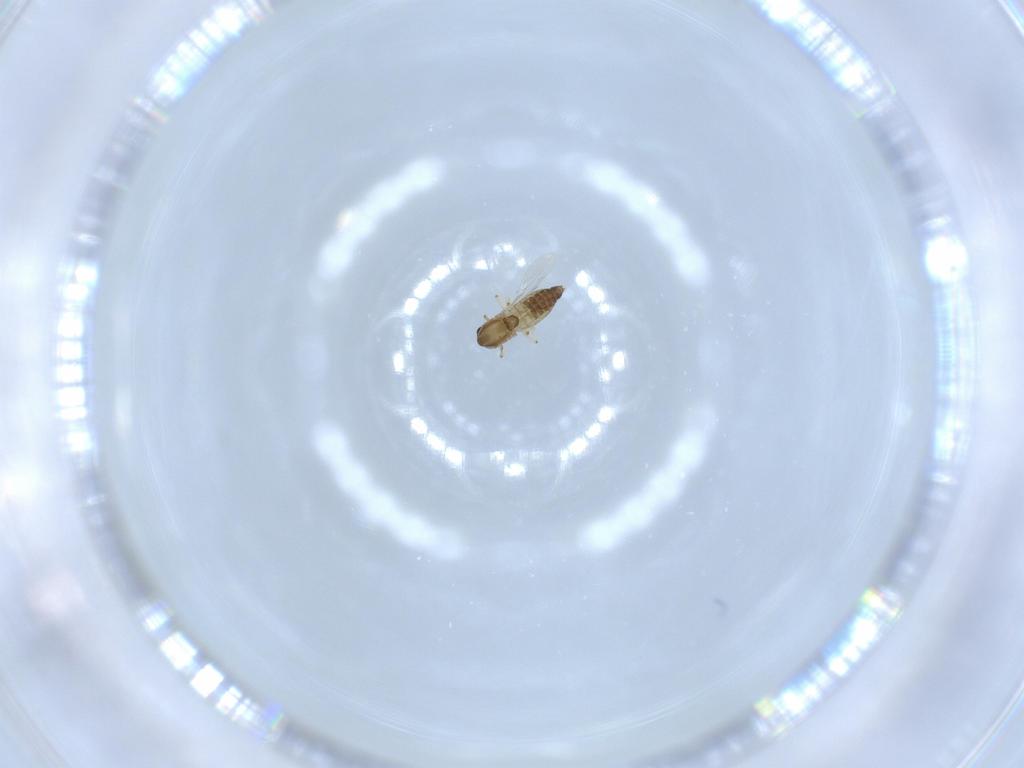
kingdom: Animalia
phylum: Arthropoda
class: Insecta
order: Diptera
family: Chironomidae
